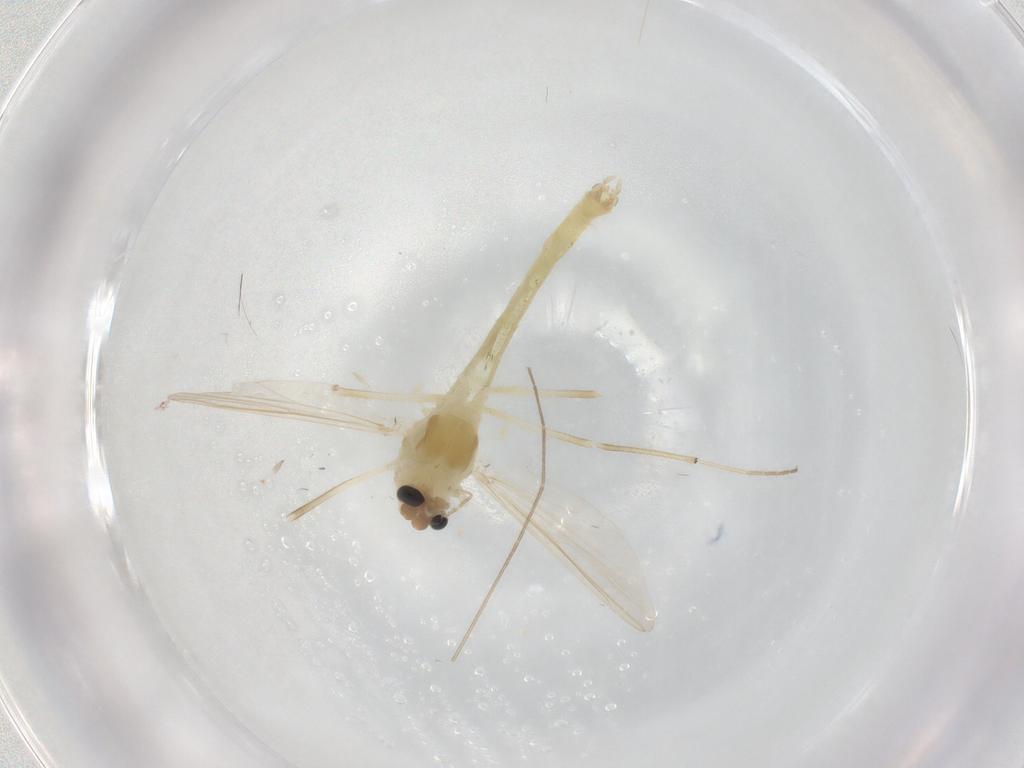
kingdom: Animalia
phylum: Arthropoda
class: Insecta
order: Diptera
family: Chironomidae
